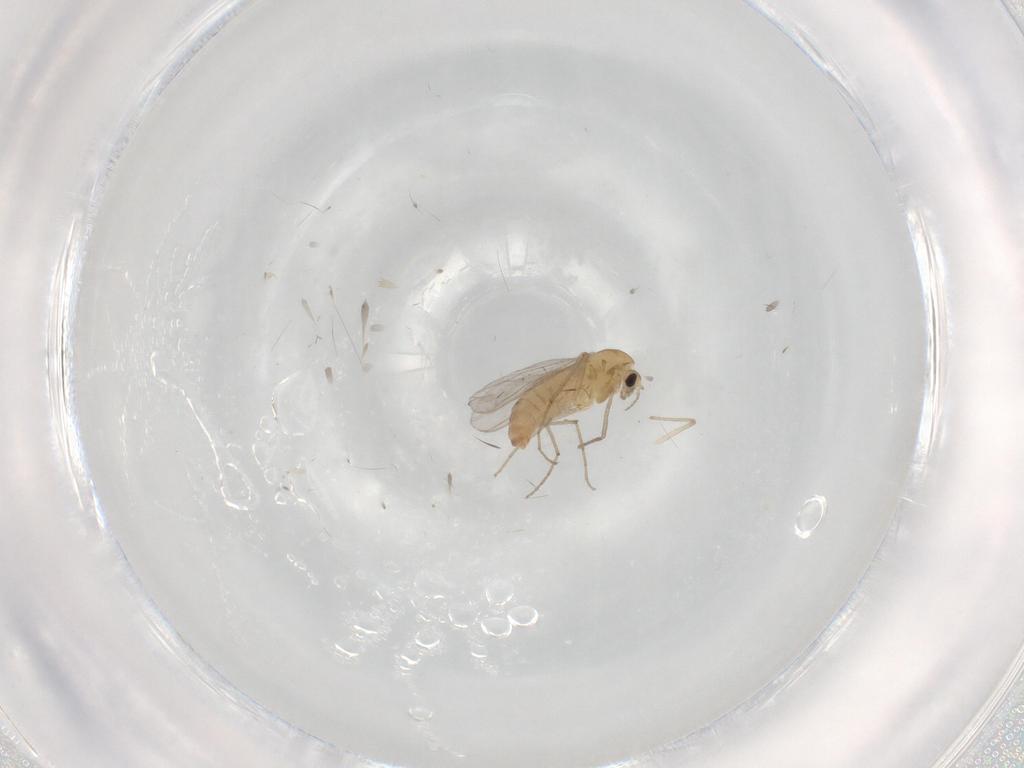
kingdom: Animalia
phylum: Arthropoda
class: Insecta
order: Diptera
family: Chironomidae
